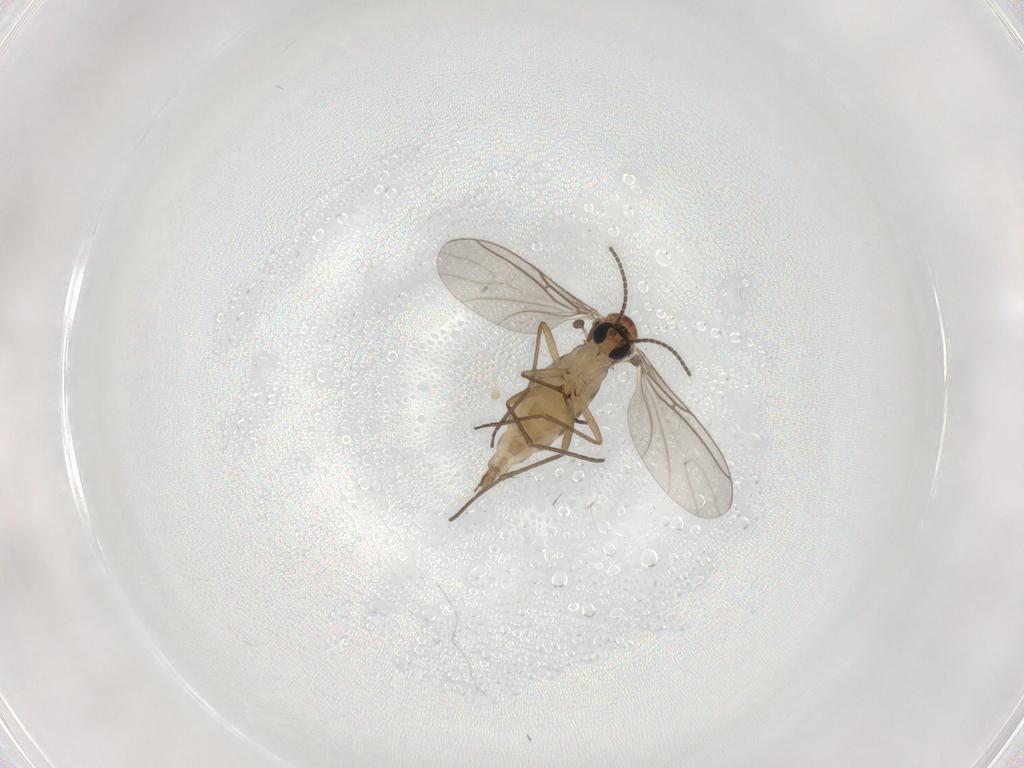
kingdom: Animalia
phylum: Arthropoda
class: Insecta
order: Diptera
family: Sciaridae
